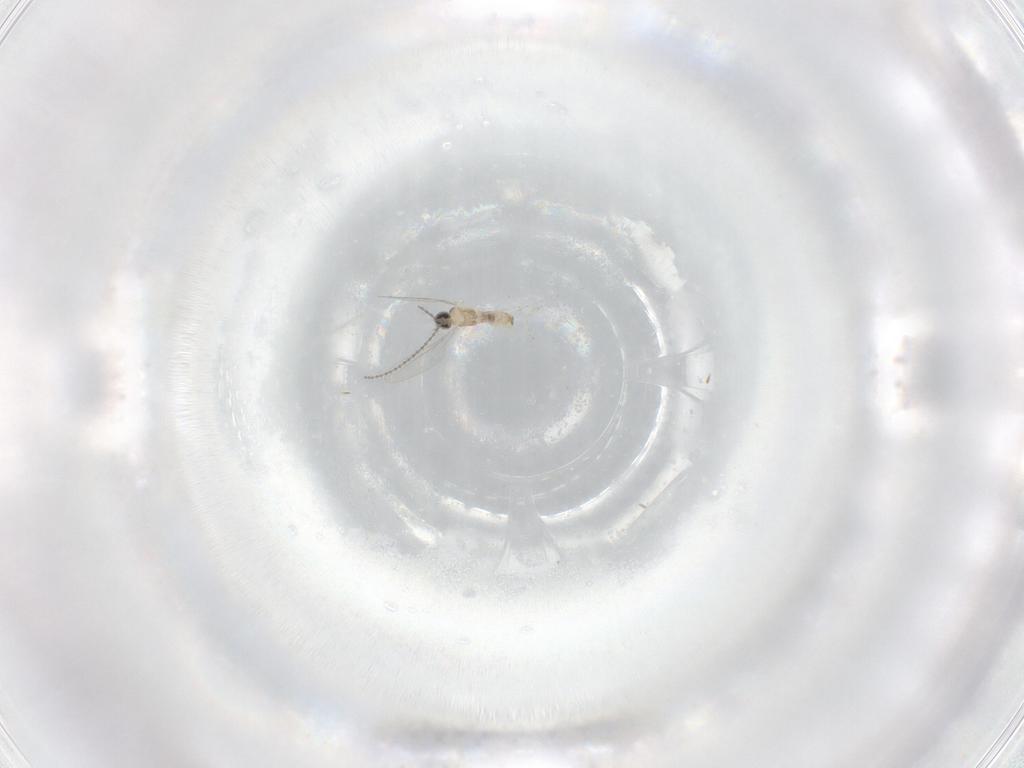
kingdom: Animalia
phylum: Arthropoda
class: Insecta
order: Diptera
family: Cecidomyiidae
